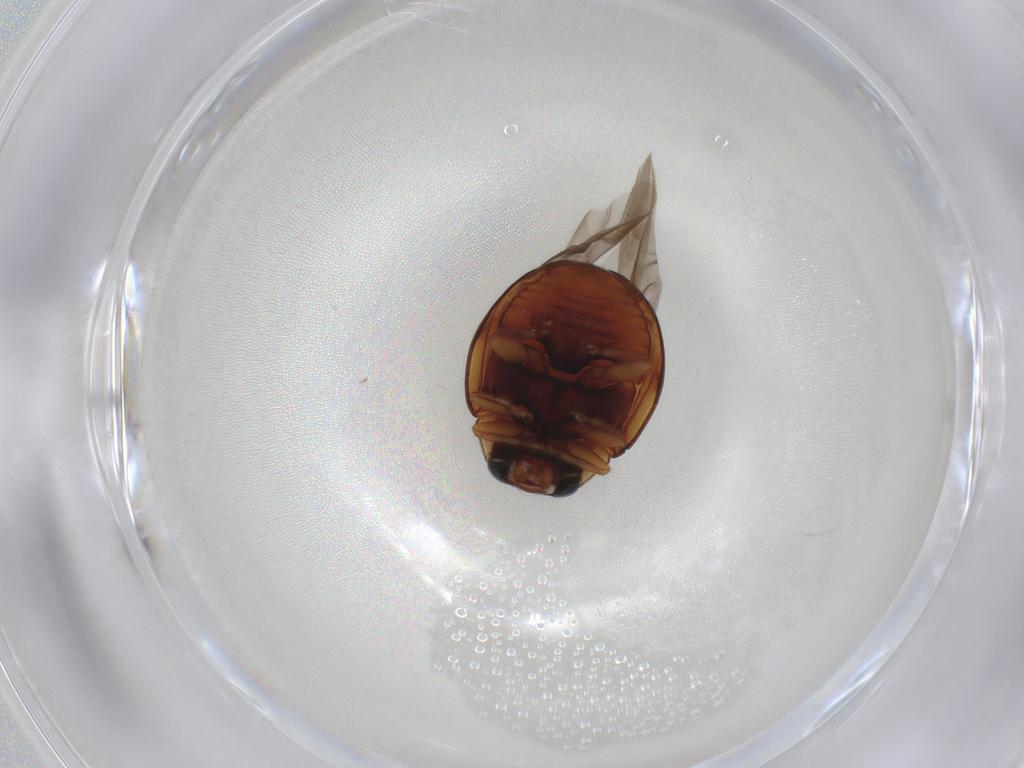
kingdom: Animalia
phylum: Arthropoda
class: Insecta
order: Coleoptera
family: Coccinellidae
